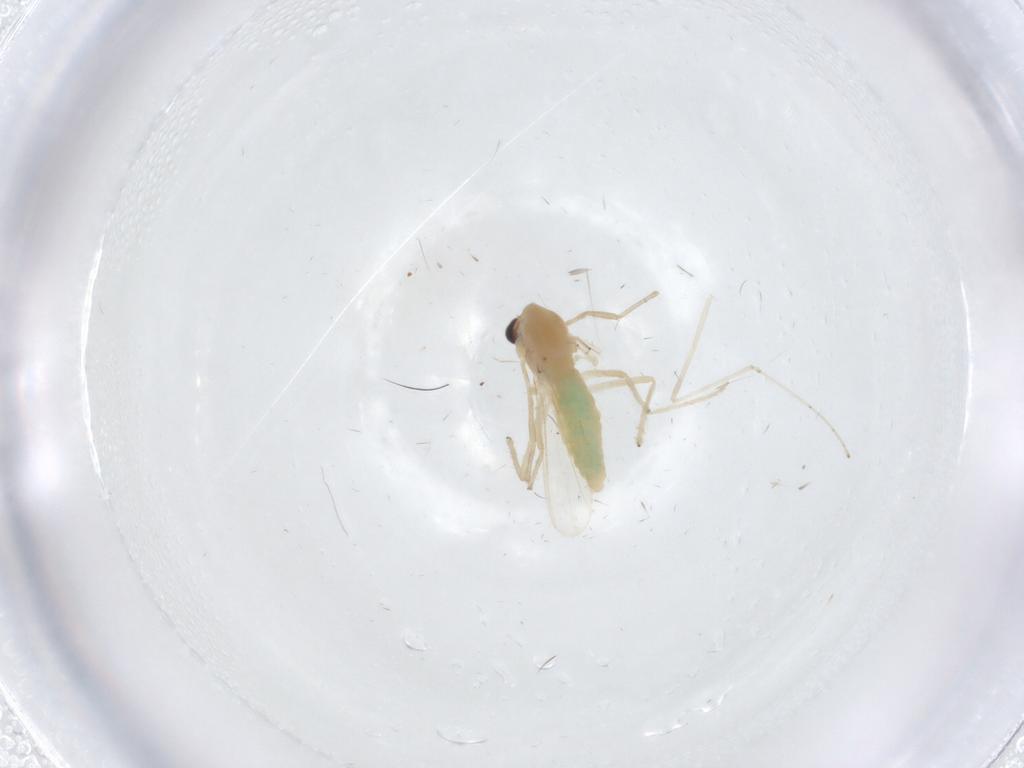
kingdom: Animalia
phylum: Arthropoda
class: Insecta
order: Diptera
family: Chironomidae
